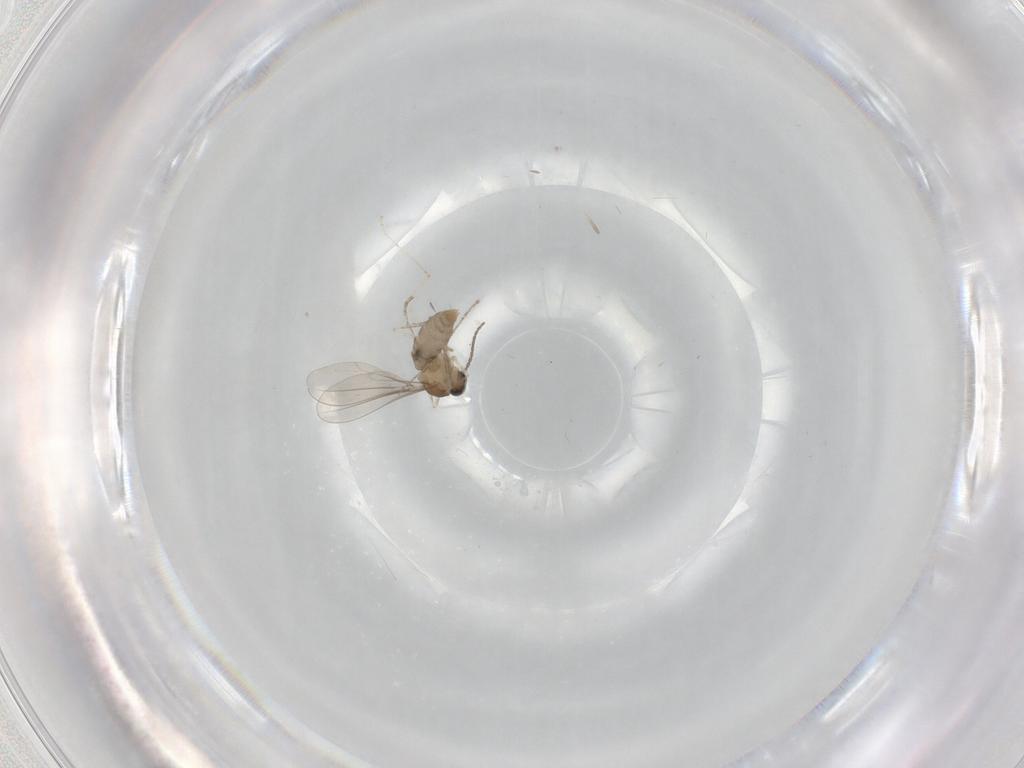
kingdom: Animalia
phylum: Arthropoda
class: Insecta
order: Diptera
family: Cecidomyiidae
